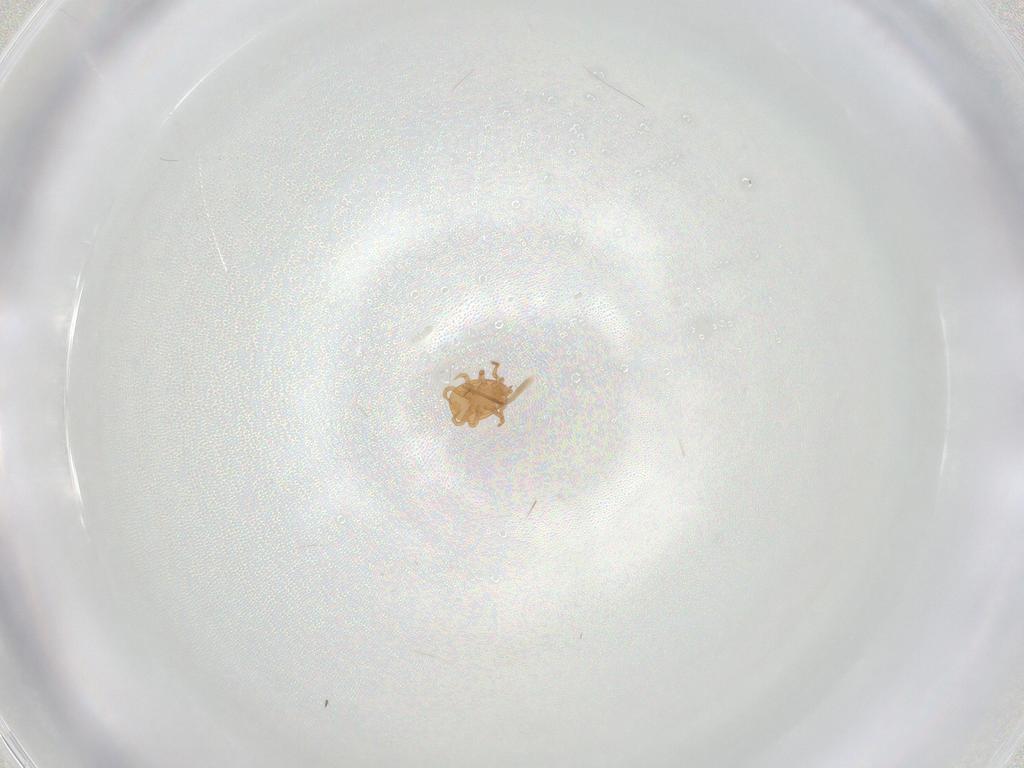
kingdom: Animalia
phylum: Arthropoda
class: Arachnida
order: Mesostigmata
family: Eviphididae
